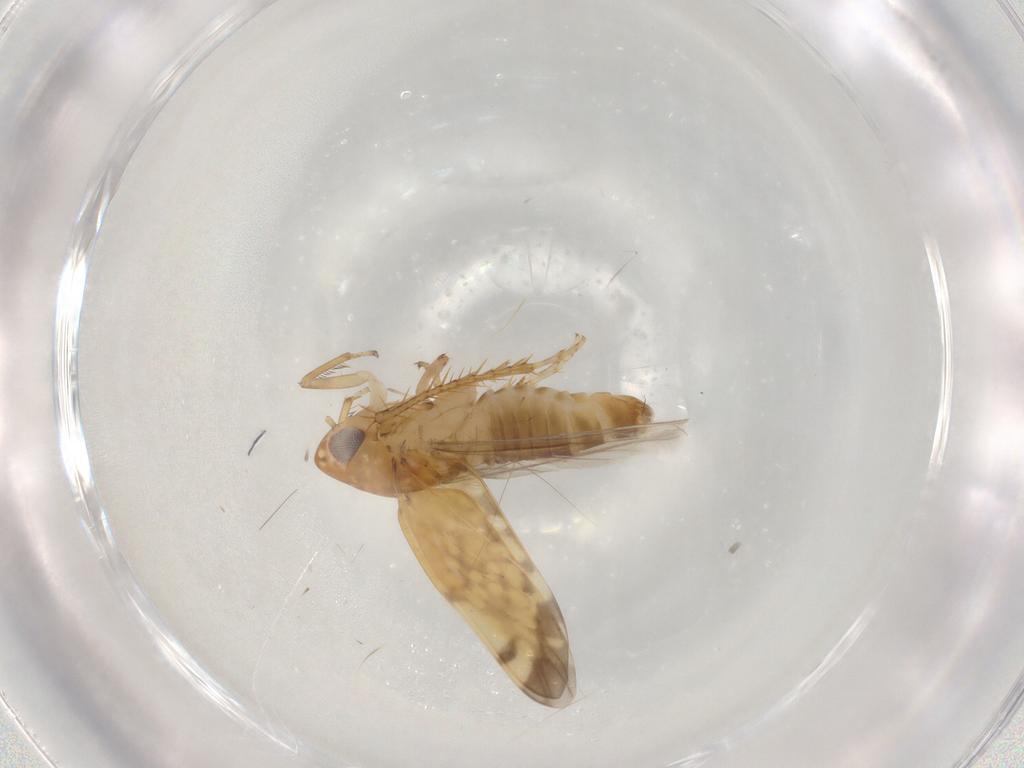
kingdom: Animalia
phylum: Arthropoda
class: Insecta
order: Hemiptera
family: Cicadellidae
